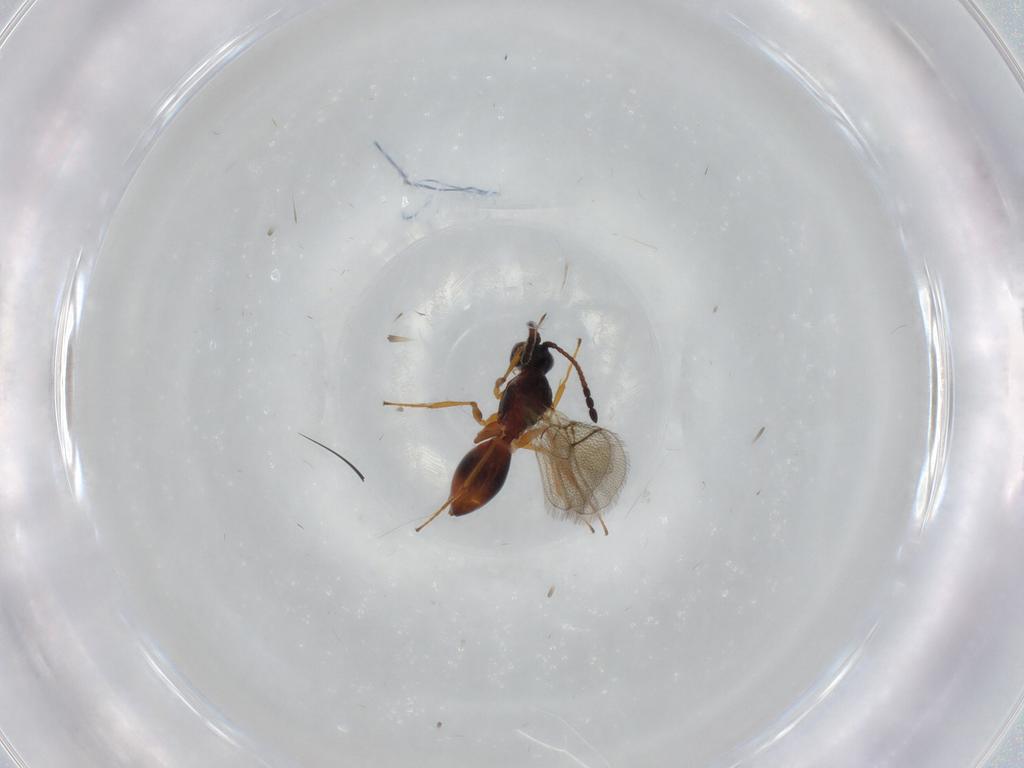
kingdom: Animalia
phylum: Arthropoda
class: Insecta
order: Hymenoptera
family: Figitidae
